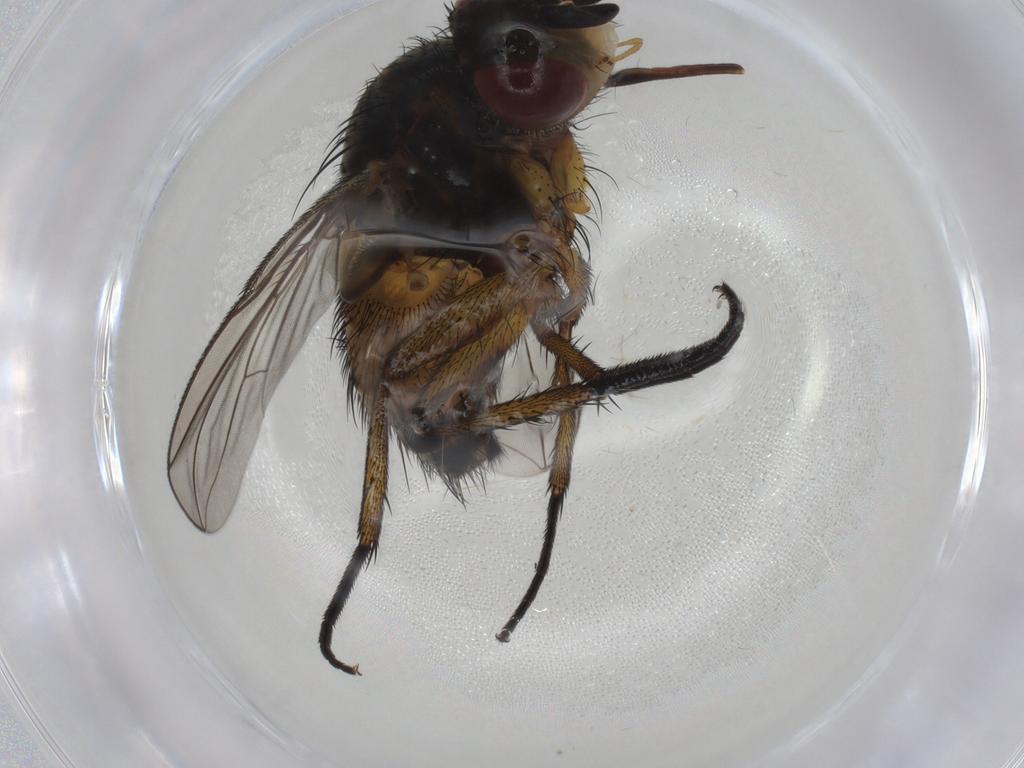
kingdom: Animalia
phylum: Arthropoda
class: Insecta
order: Diptera
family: Tachinidae
